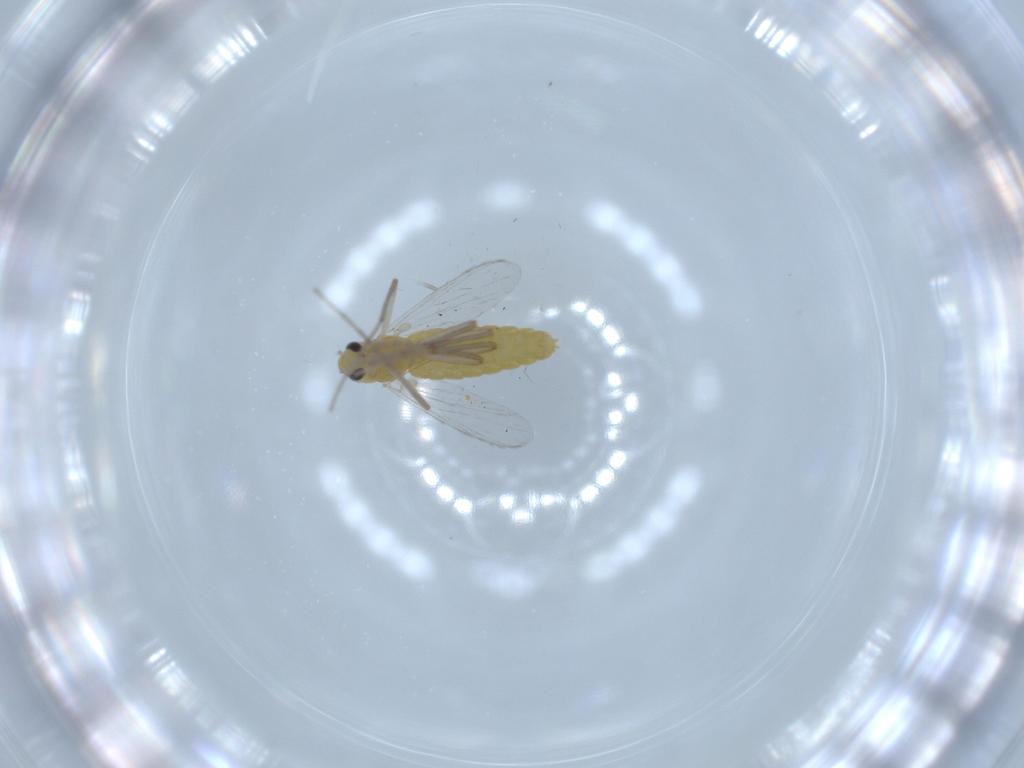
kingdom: Animalia
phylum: Arthropoda
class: Insecta
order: Diptera
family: Chironomidae
